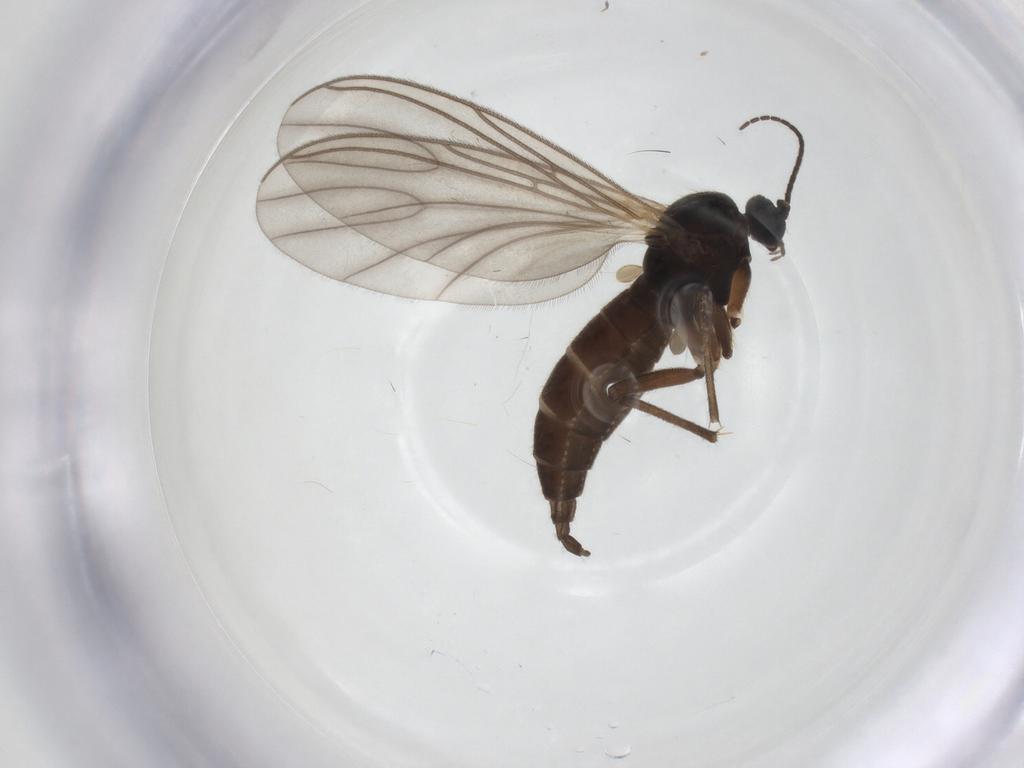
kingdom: Animalia
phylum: Arthropoda
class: Insecta
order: Diptera
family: Sciaridae
